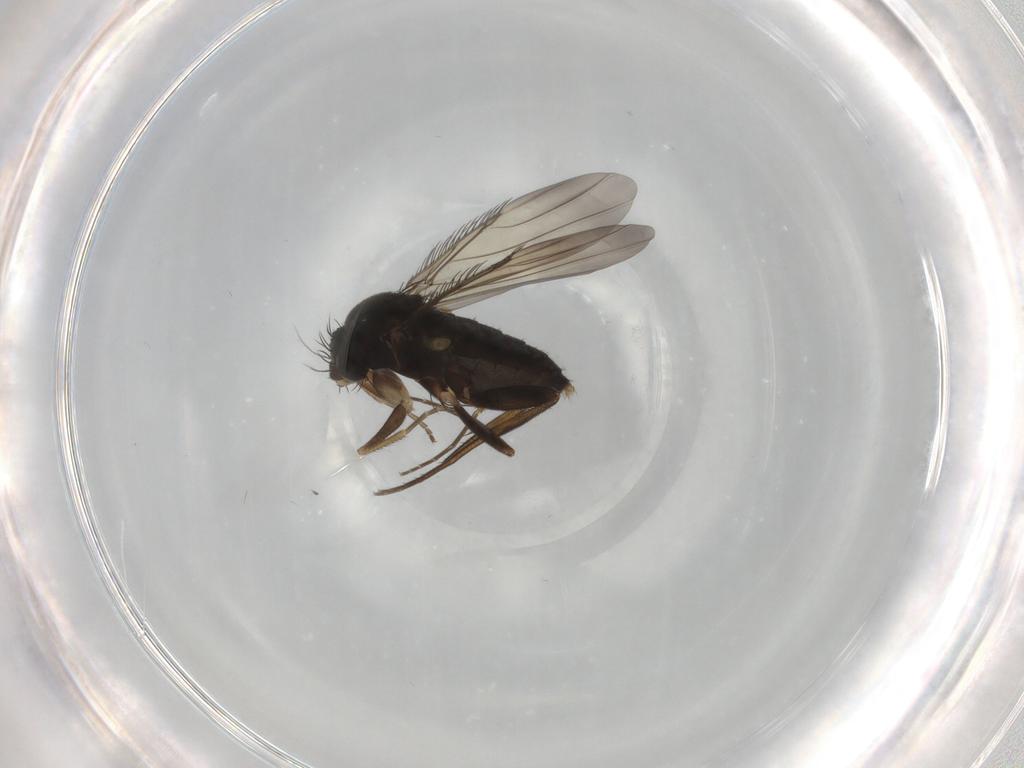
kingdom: Animalia
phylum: Arthropoda
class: Insecta
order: Diptera
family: Phoridae
